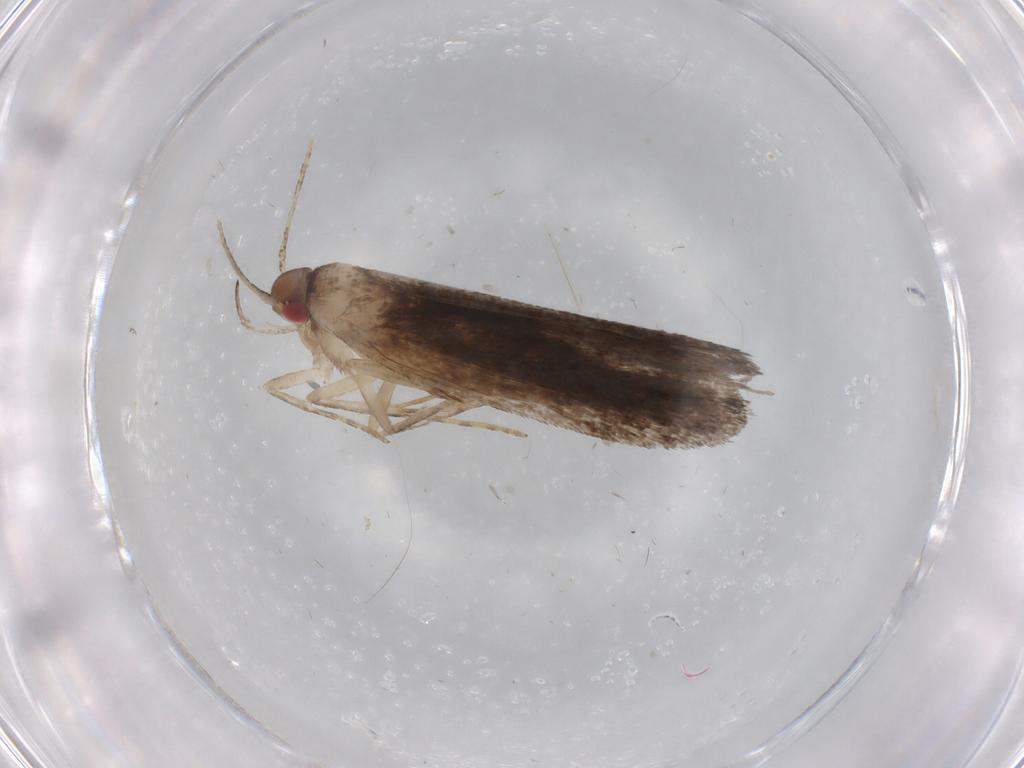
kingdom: Animalia
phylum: Arthropoda
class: Insecta
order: Lepidoptera
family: Gelechiidae
